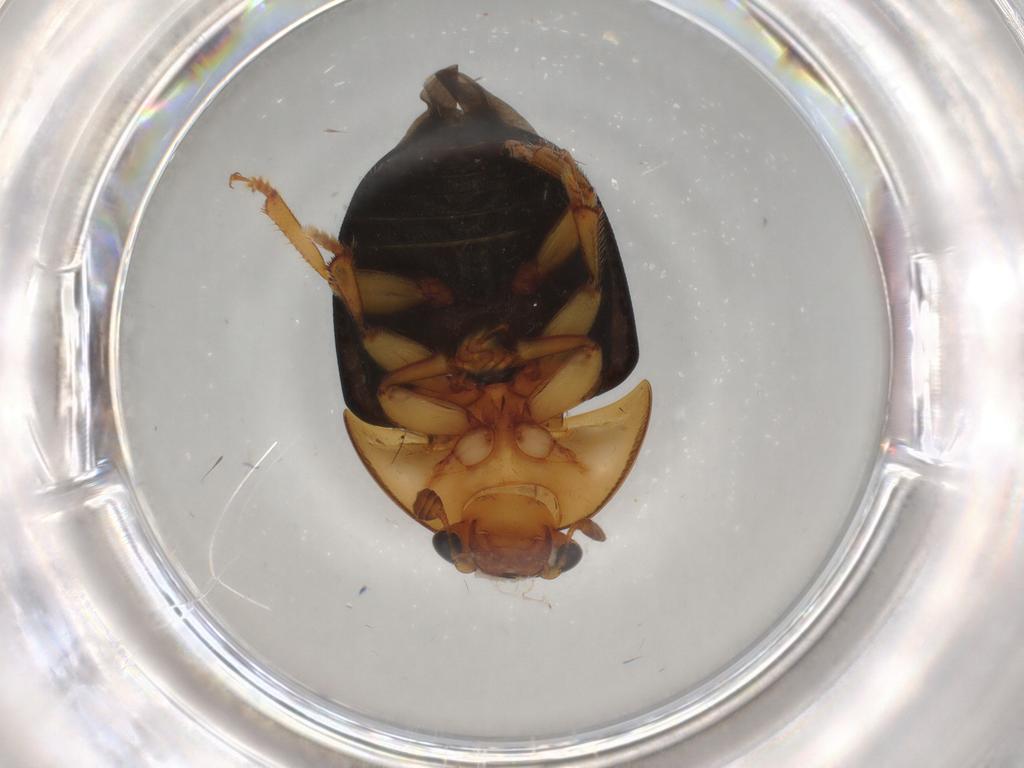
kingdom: Animalia
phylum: Arthropoda
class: Insecta
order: Coleoptera
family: Nitidulidae
